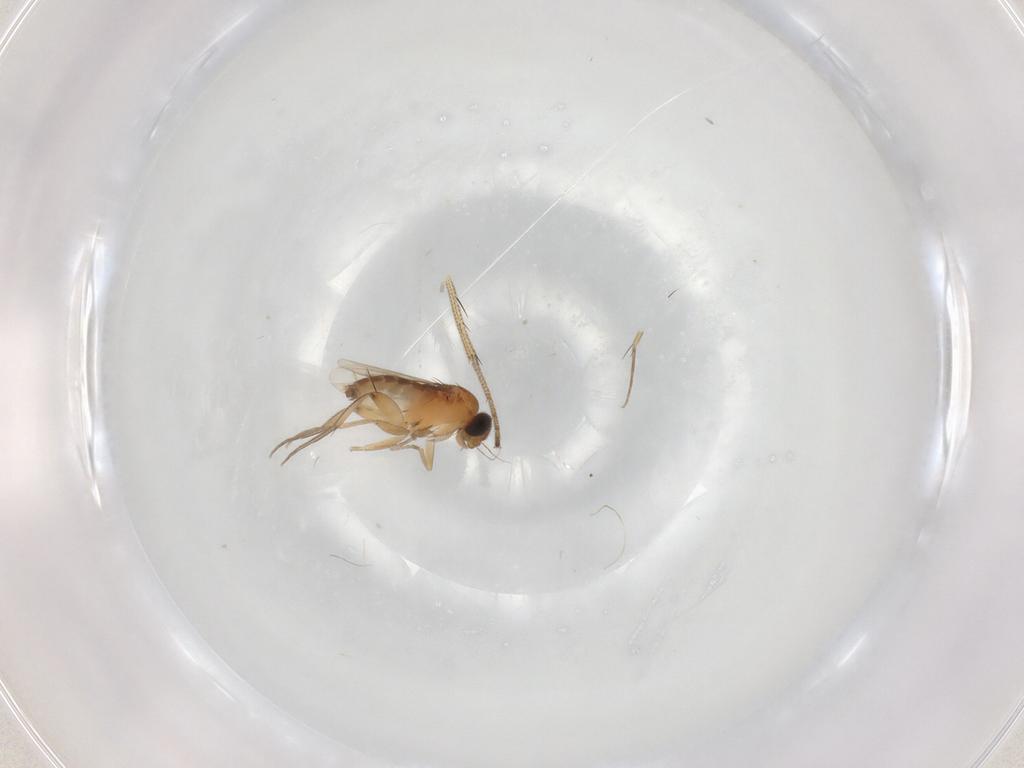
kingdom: Animalia
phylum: Arthropoda
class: Insecta
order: Diptera
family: Phoridae
